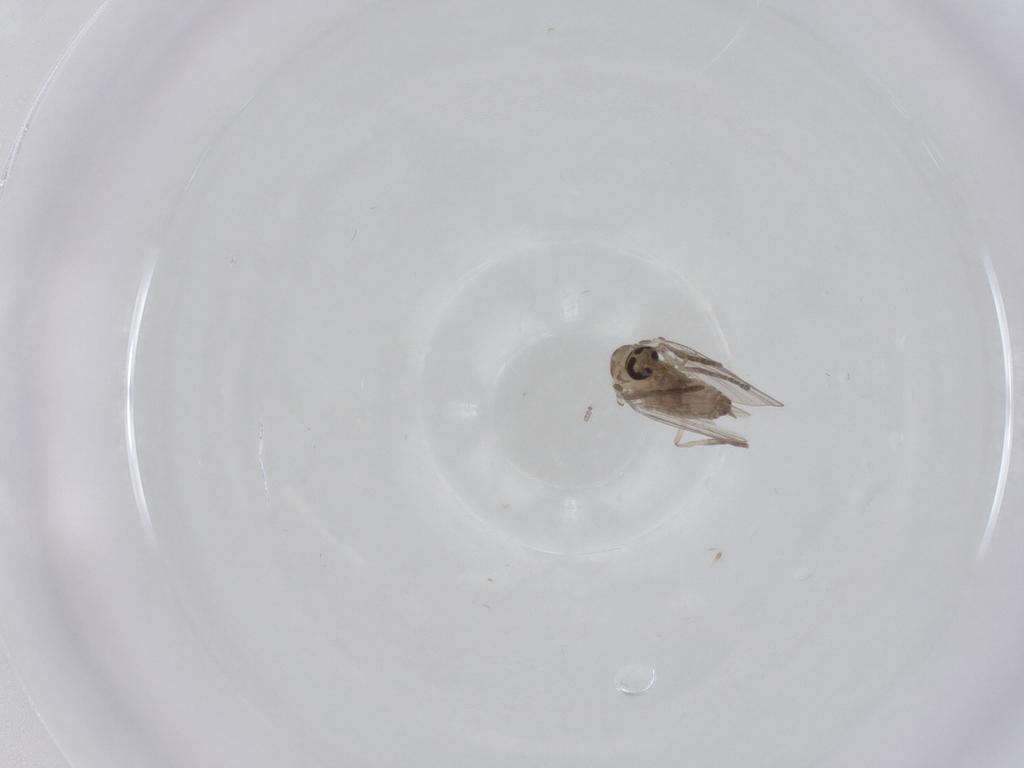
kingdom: Animalia
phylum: Arthropoda
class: Insecta
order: Diptera
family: Psychodidae
